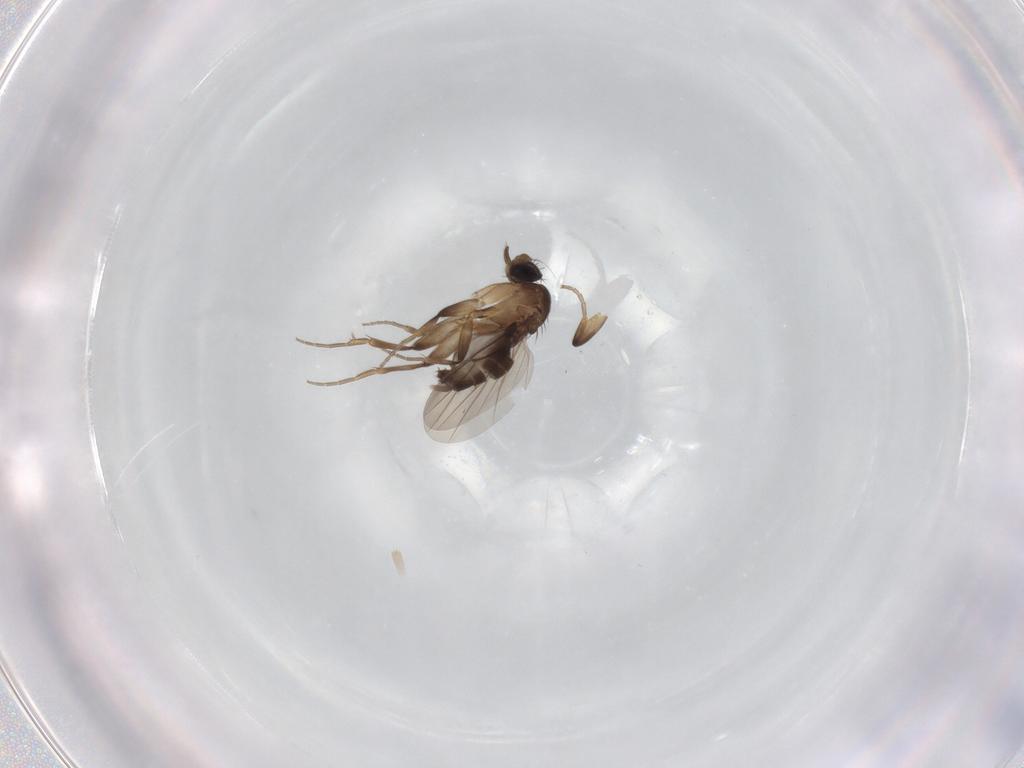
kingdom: Animalia
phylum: Arthropoda
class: Insecta
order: Diptera
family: Phoridae
